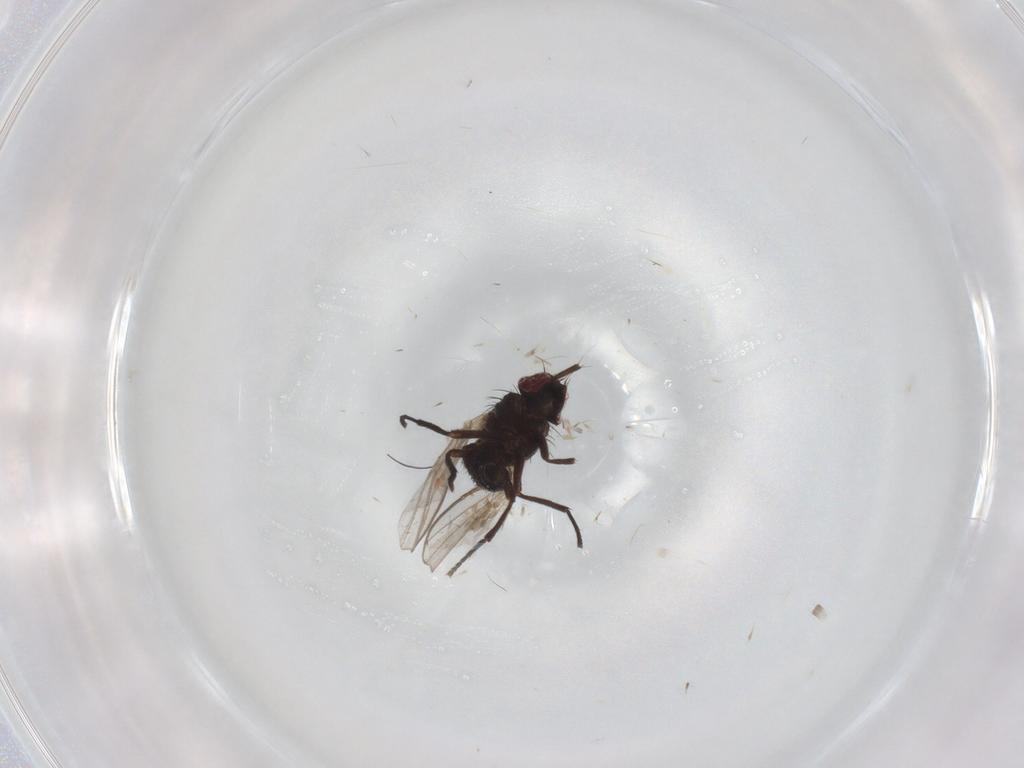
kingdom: Animalia
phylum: Arthropoda
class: Insecta
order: Diptera
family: Agromyzidae
